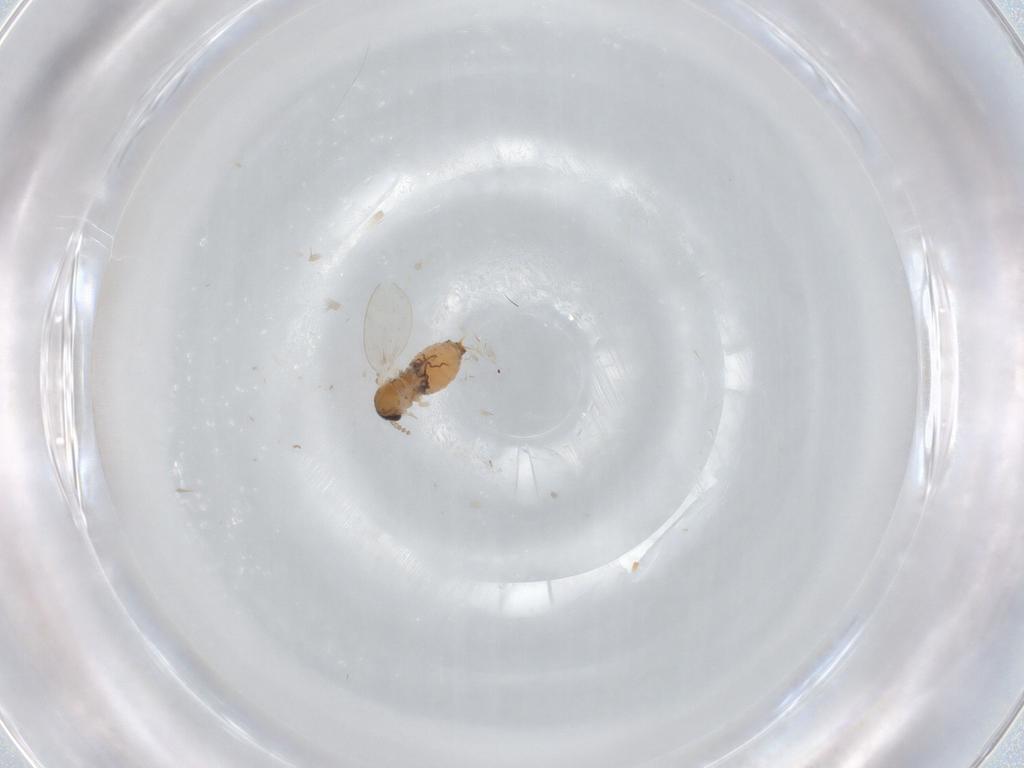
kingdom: Animalia
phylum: Arthropoda
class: Insecta
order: Diptera
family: Psychodidae
